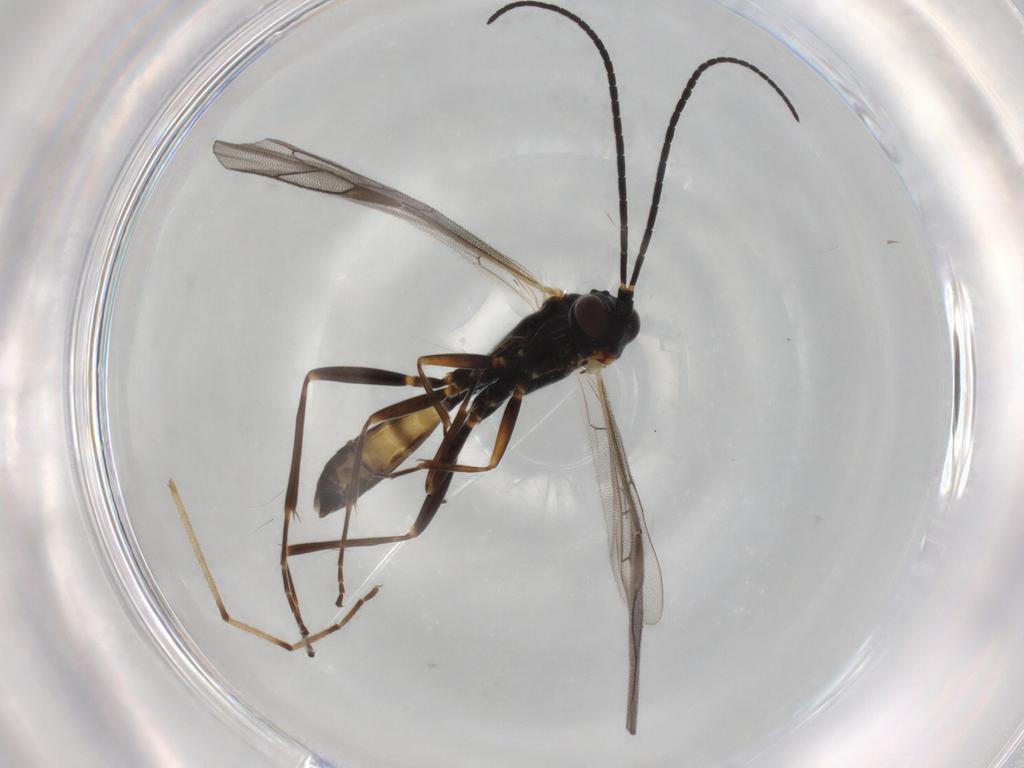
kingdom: Animalia
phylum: Arthropoda
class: Insecta
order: Hymenoptera
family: Ichneumonidae
